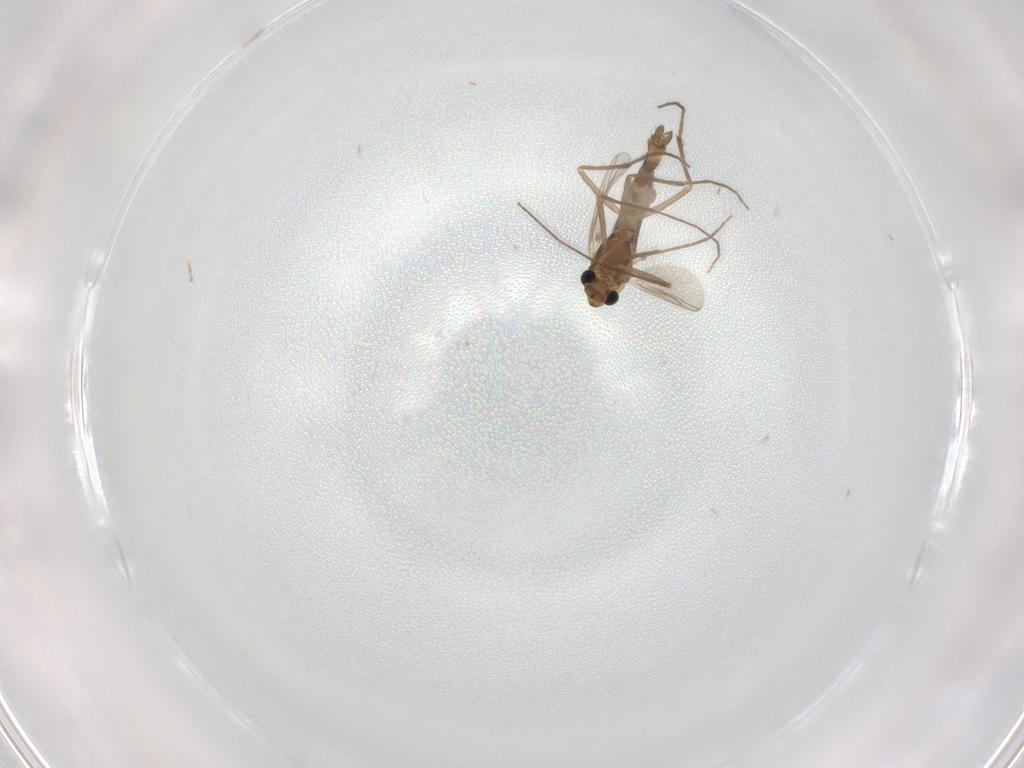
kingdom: Animalia
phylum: Arthropoda
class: Insecta
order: Diptera
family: Chironomidae
